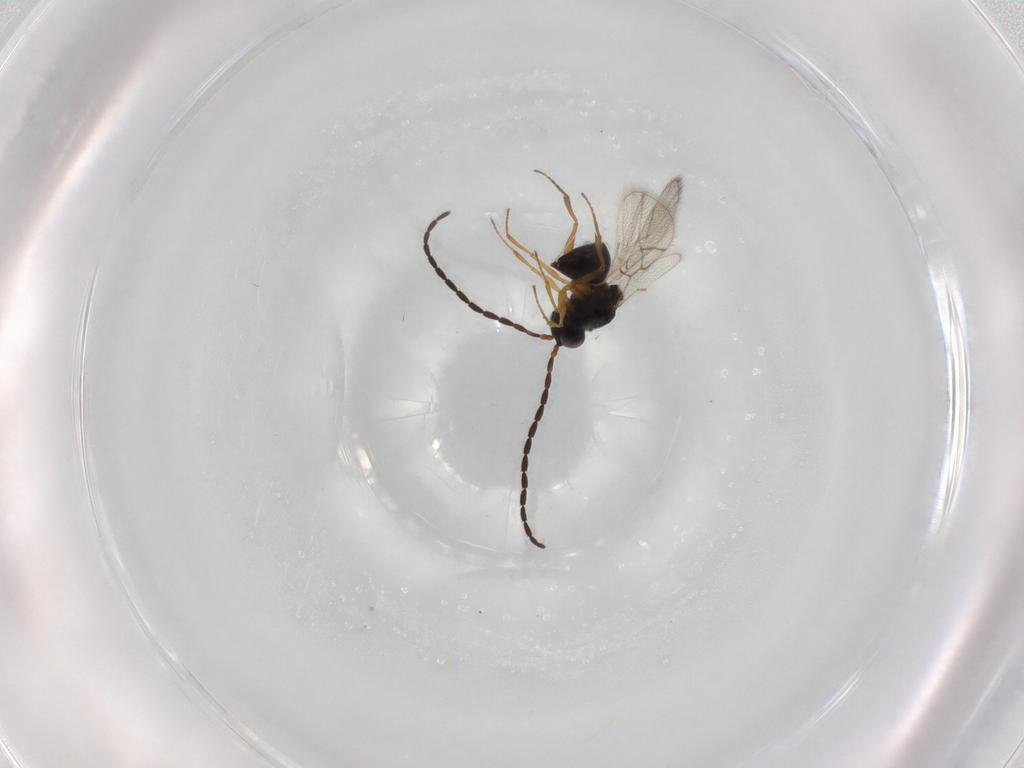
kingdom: Animalia
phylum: Arthropoda
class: Insecta
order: Hymenoptera
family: Figitidae
